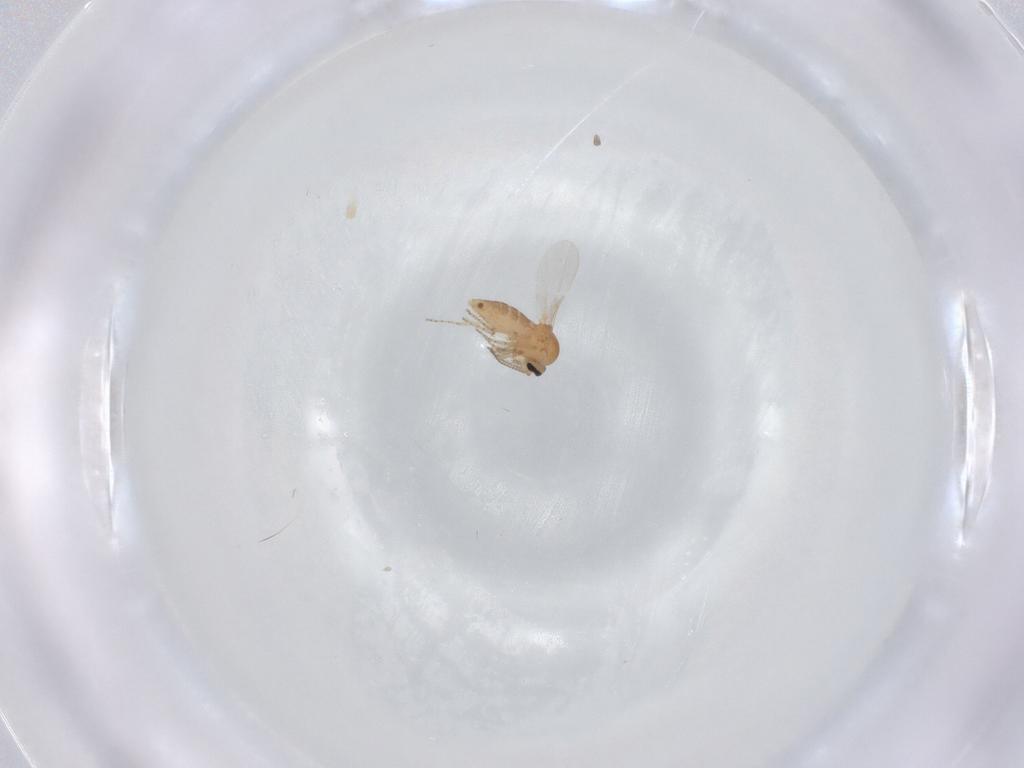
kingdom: Animalia
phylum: Arthropoda
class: Insecta
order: Diptera
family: Ceratopogonidae
